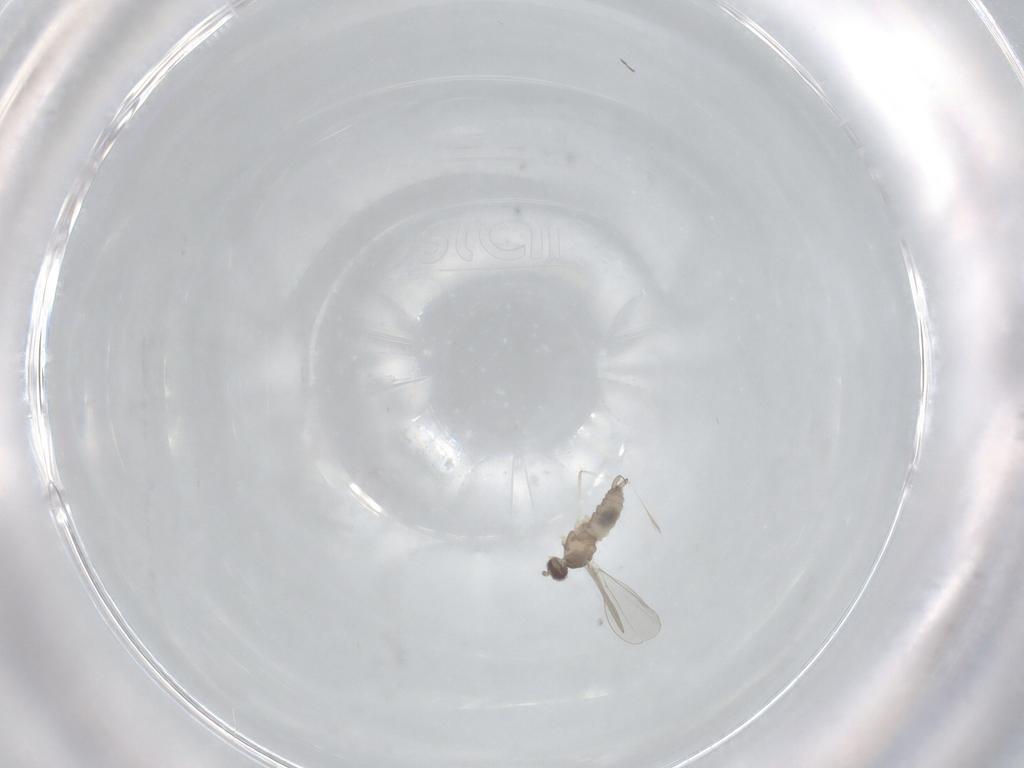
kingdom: Animalia
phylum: Arthropoda
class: Insecta
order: Diptera
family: Cecidomyiidae
